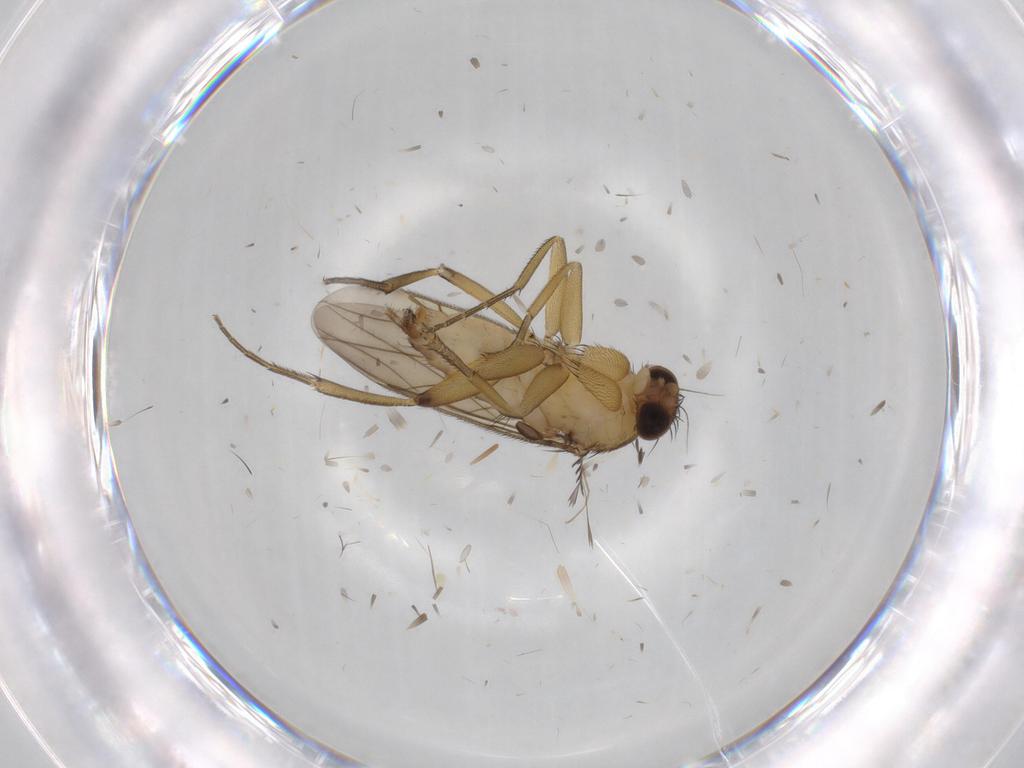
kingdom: Animalia
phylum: Arthropoda
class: Insecta
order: Diptera
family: Phoridae
